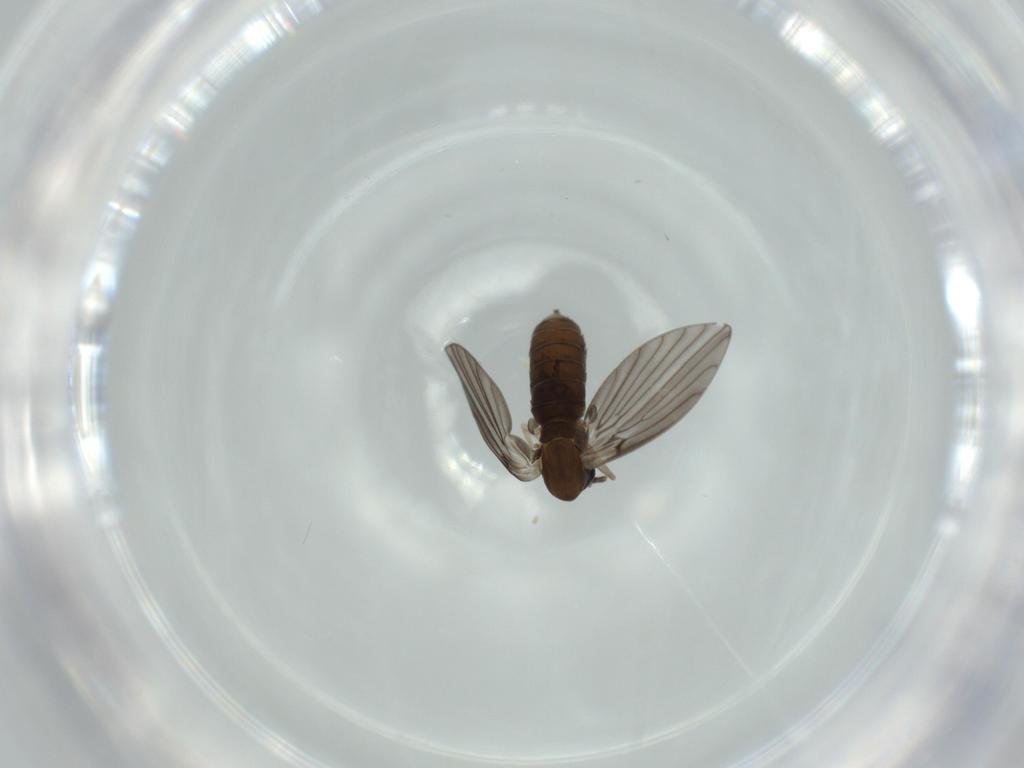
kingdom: Animalia
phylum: Arthropoda
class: Insecta
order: Diptera
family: Psychodidae
